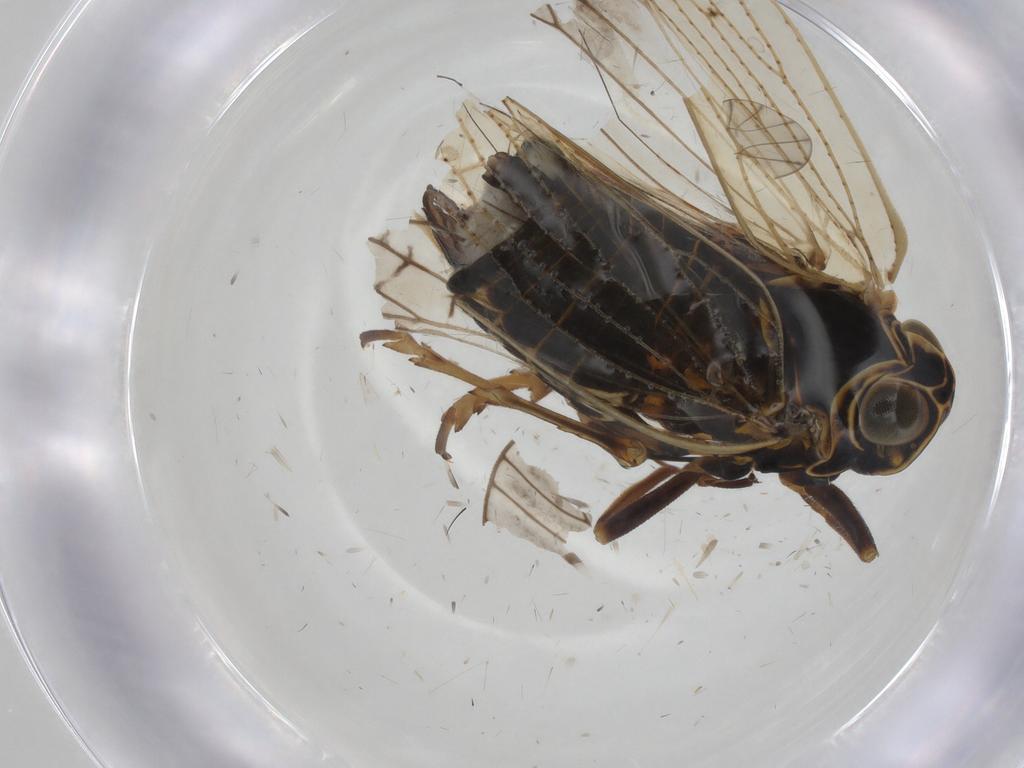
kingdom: Animalia
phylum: Arthropoda
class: Insecta
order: Hemiptera
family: Cixiidae
